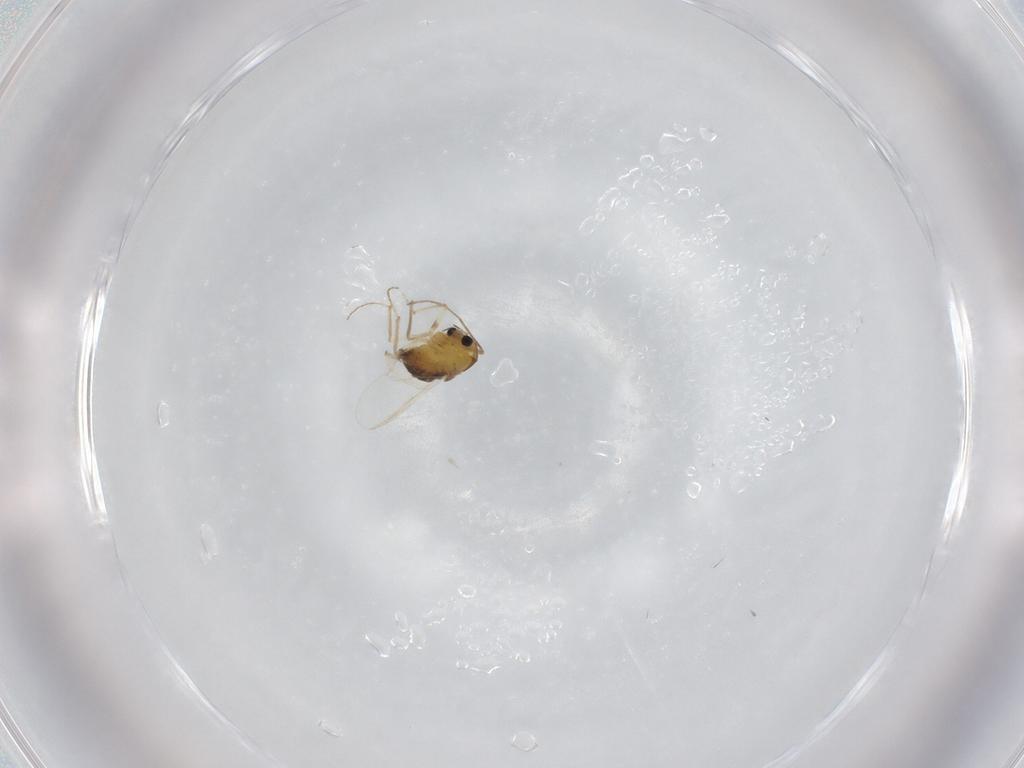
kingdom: Animalia
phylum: Arthropoda
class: Insecta
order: Diptera
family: Chironomidae
